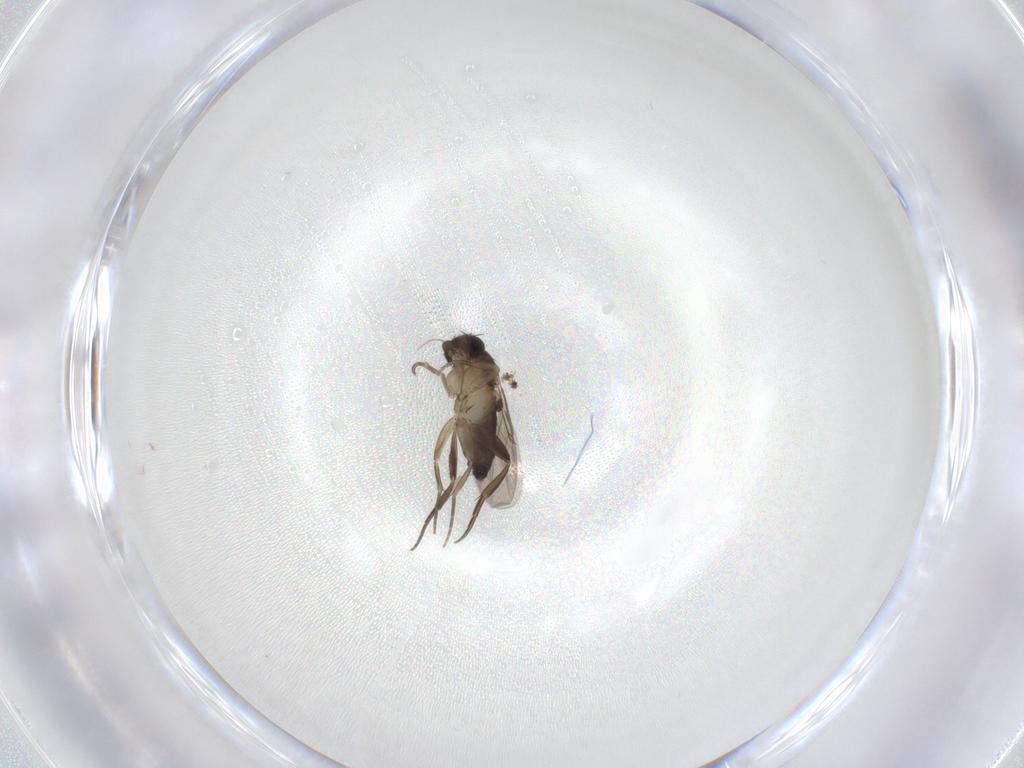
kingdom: Animalia
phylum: Arthropoda
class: Insecta
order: Diptera
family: Phoridae
